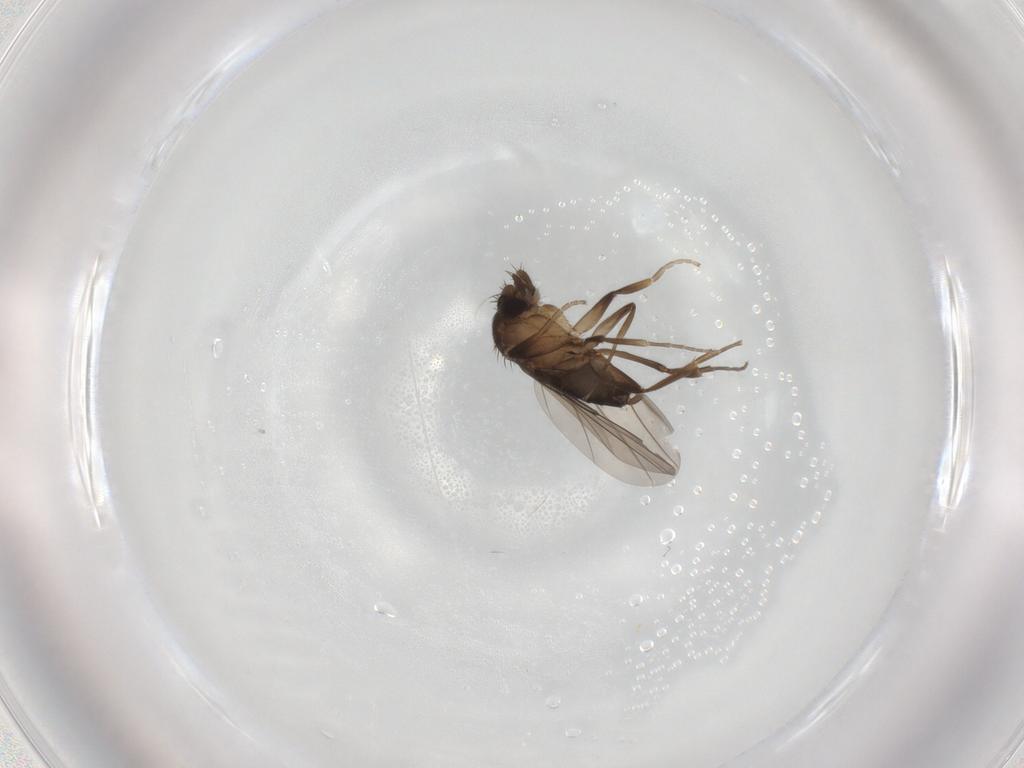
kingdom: Animalia
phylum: Arthropoda
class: Insecta
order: Diptera
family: Phoridae
